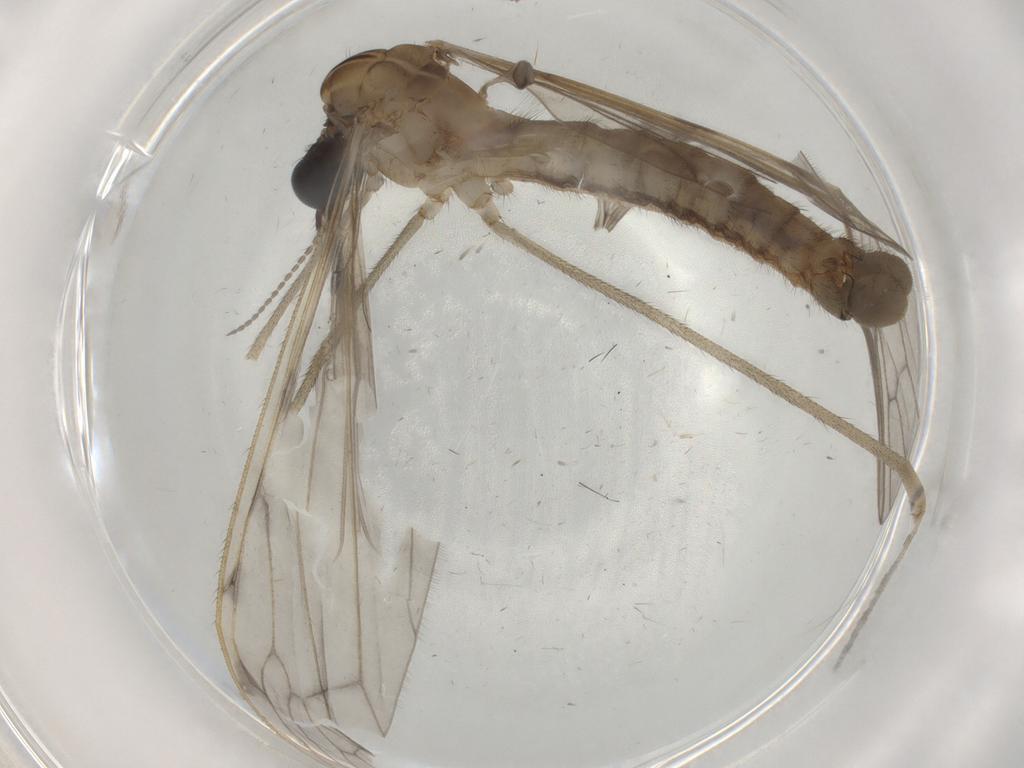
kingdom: Animalia
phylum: Arthropoda
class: Insecta
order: Diptera
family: Limoniidae
